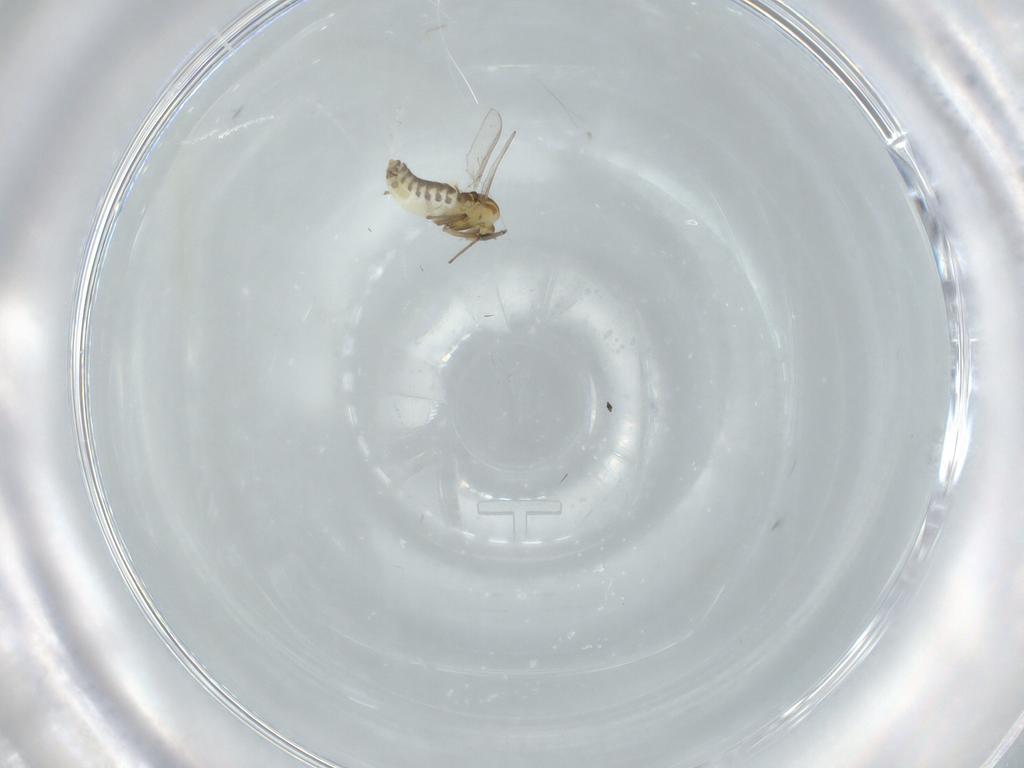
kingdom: Animalia
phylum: Arthropoda
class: Insecta
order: Diptera
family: Chironomidae
